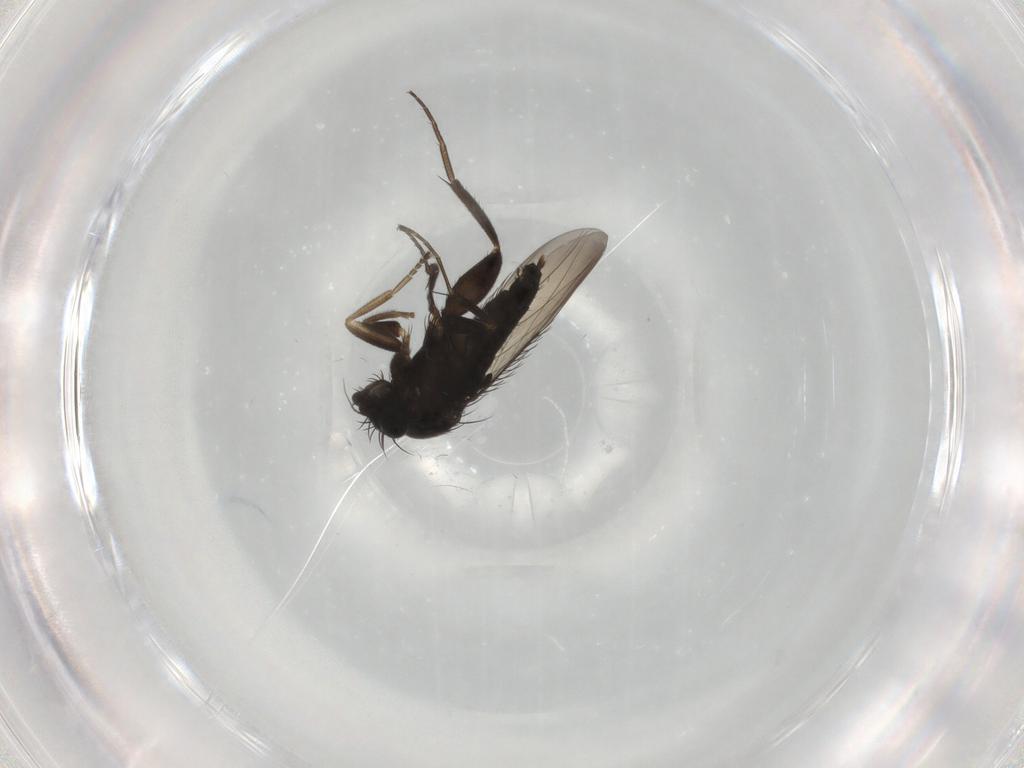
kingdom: Animalia
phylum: Arthropoda
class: Insecta
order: Diptera
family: Phoridae
